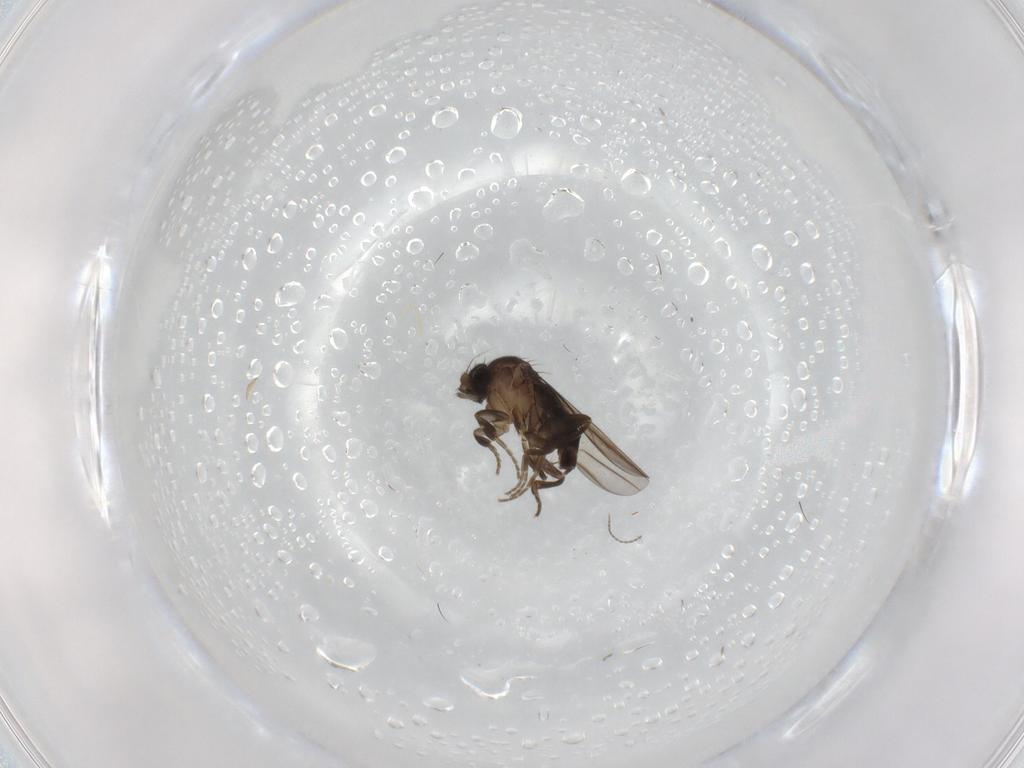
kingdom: Animalia
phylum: Arthropoda
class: Insecta
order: Diptera
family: Phoridae
